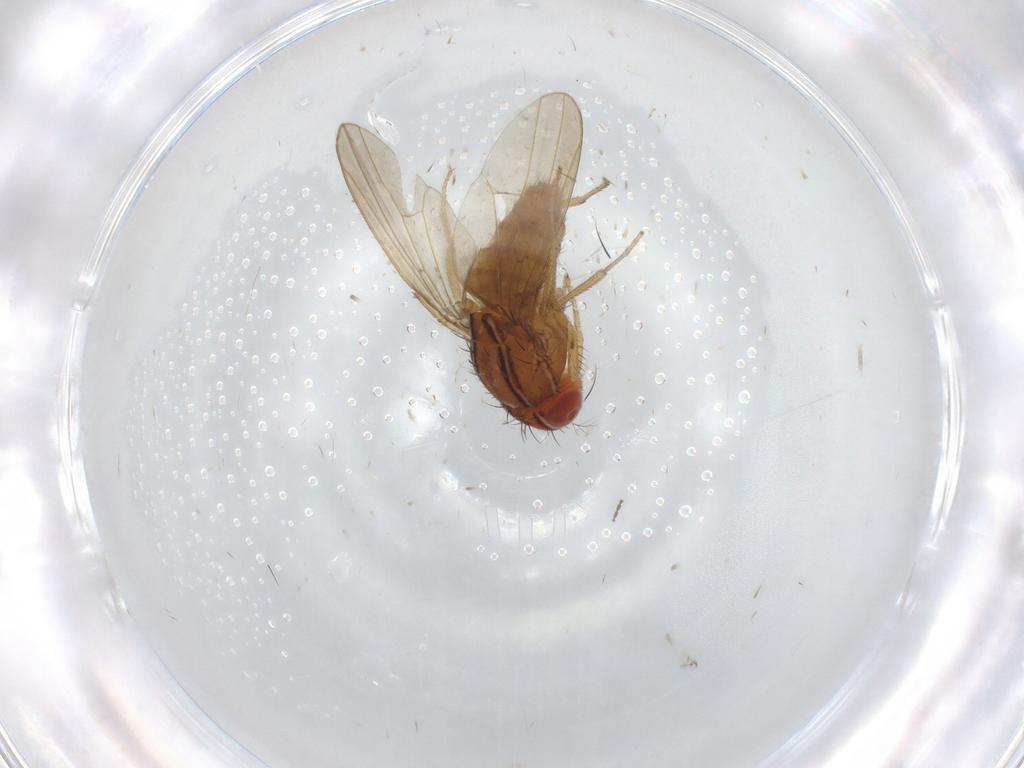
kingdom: Animalia
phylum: Arthropoda
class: Insecta
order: Diptera
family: Drosophilidae
